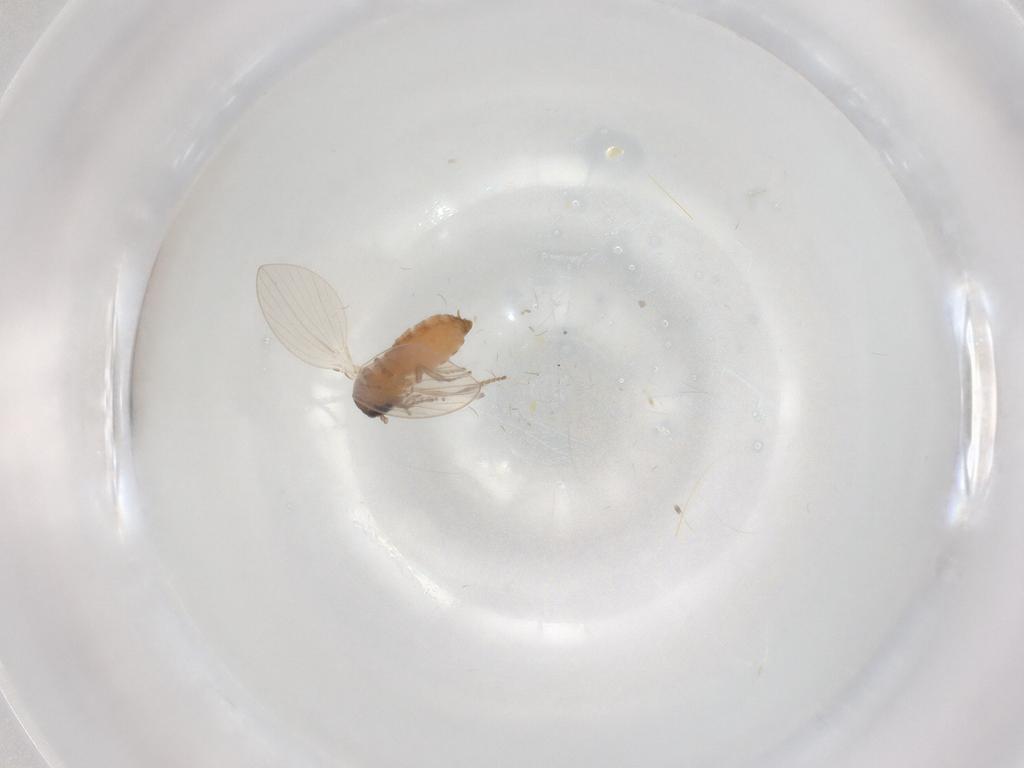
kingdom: Animalia
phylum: Arthropoda
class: Insecta
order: Diptera
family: Psychodidae
